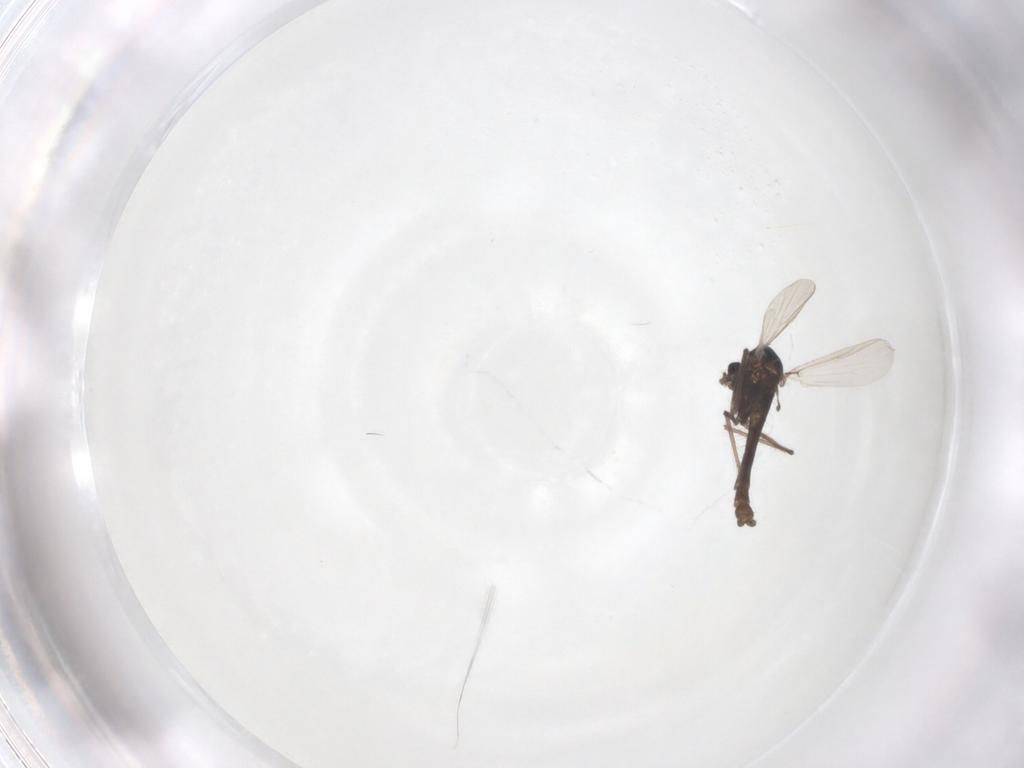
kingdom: Animalia
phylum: Arthropoda
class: Insecta
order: Diptera
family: Chironomidae
